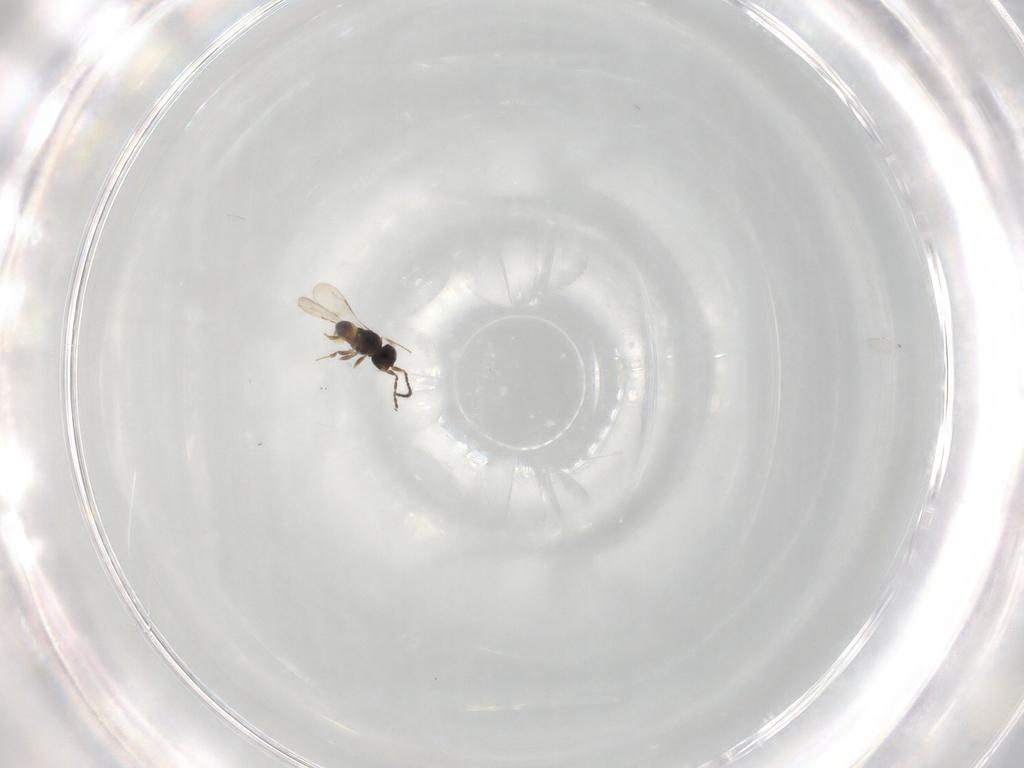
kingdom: Animalia
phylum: Arthropoda
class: Insecta
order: Hymenoptera
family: Ceraphronidae
